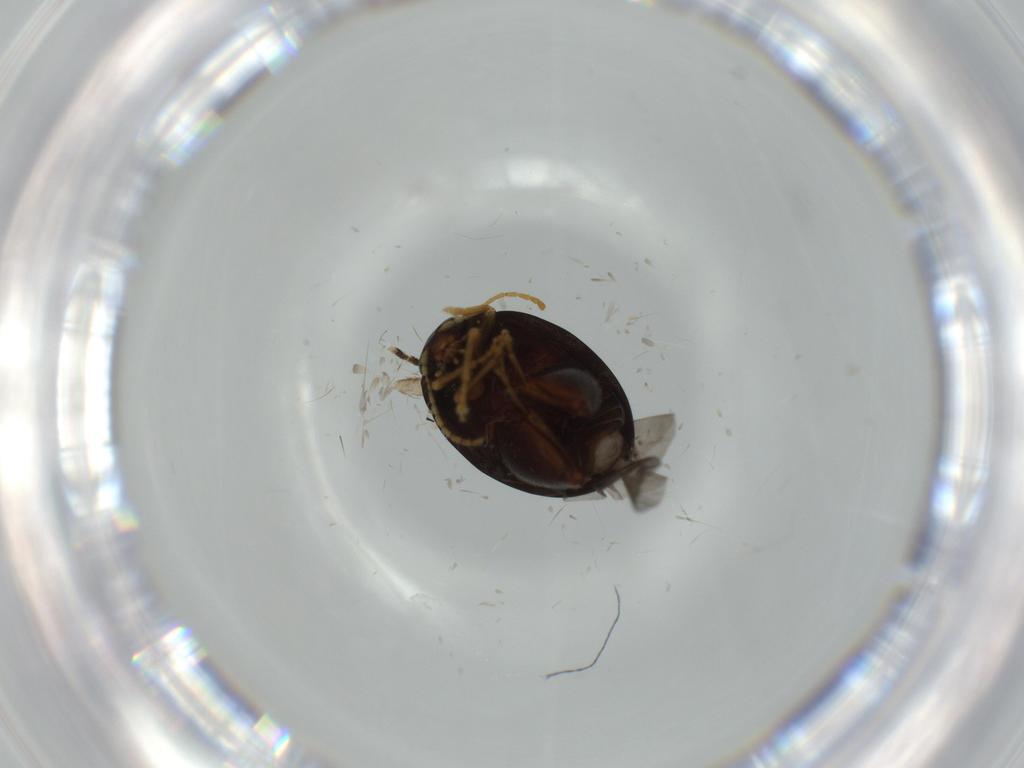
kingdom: Animalia
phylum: Arthropoda
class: Insecta
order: Coleoptera
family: Chrysomelidae
